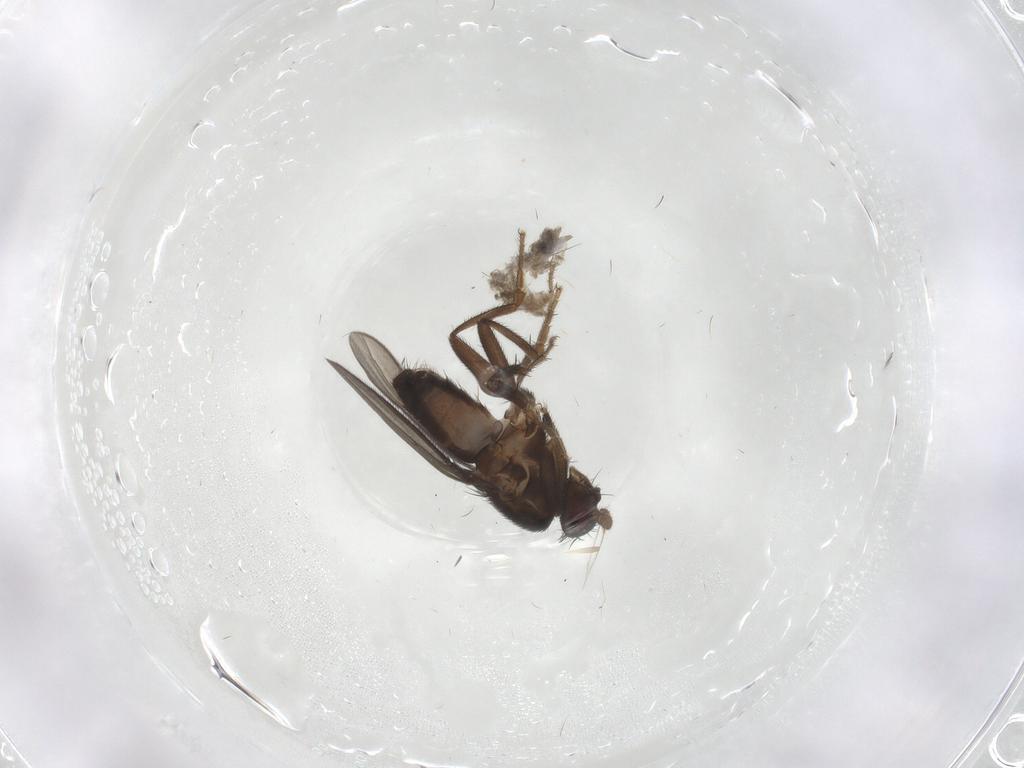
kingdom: Animalia
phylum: Arthropoda
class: Insecta
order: Diptera
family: Sphaeroceridae
